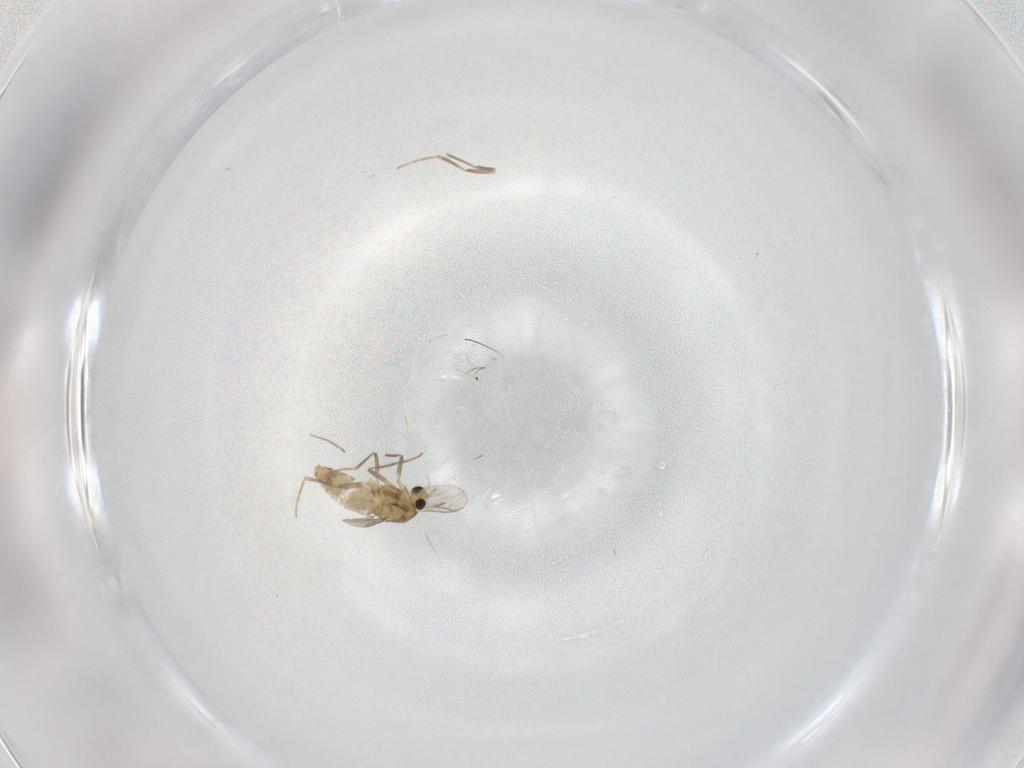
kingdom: Animalia
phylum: Arthropoda
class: Insecta
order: Diptera
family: Chironomidae
